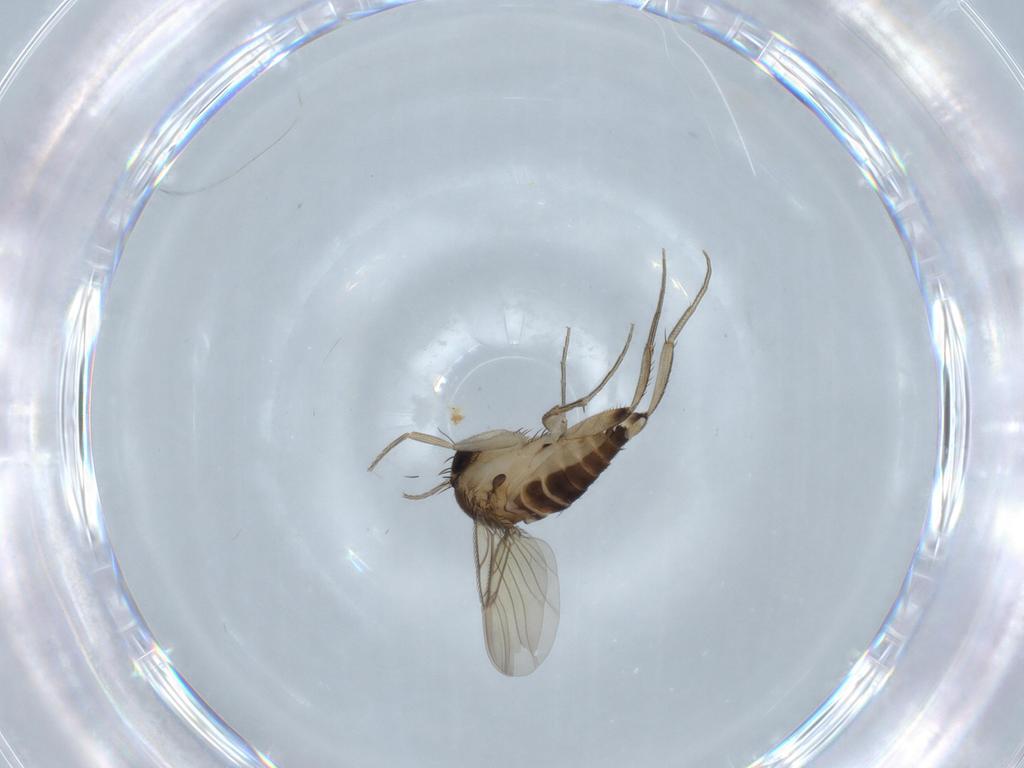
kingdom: Animalia
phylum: Arthropoda
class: Insecta
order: Diptera
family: Phoridae
